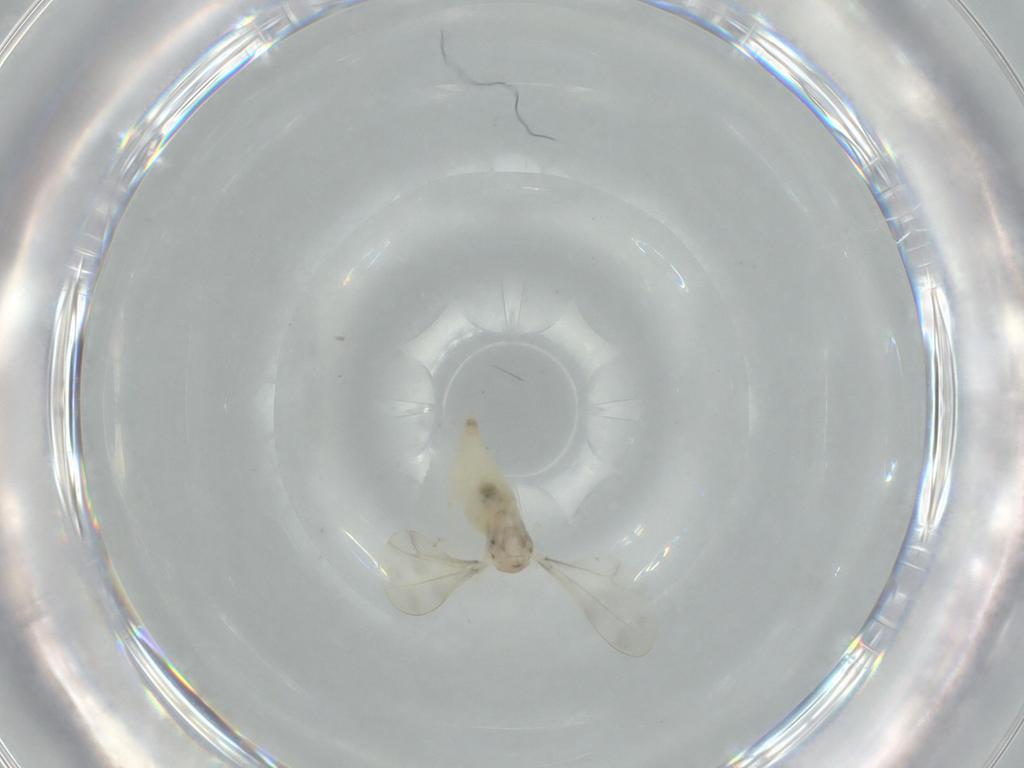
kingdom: Animalia
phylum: Arthropoda
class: Insecta
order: Diptera
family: Cecidomyiidae
